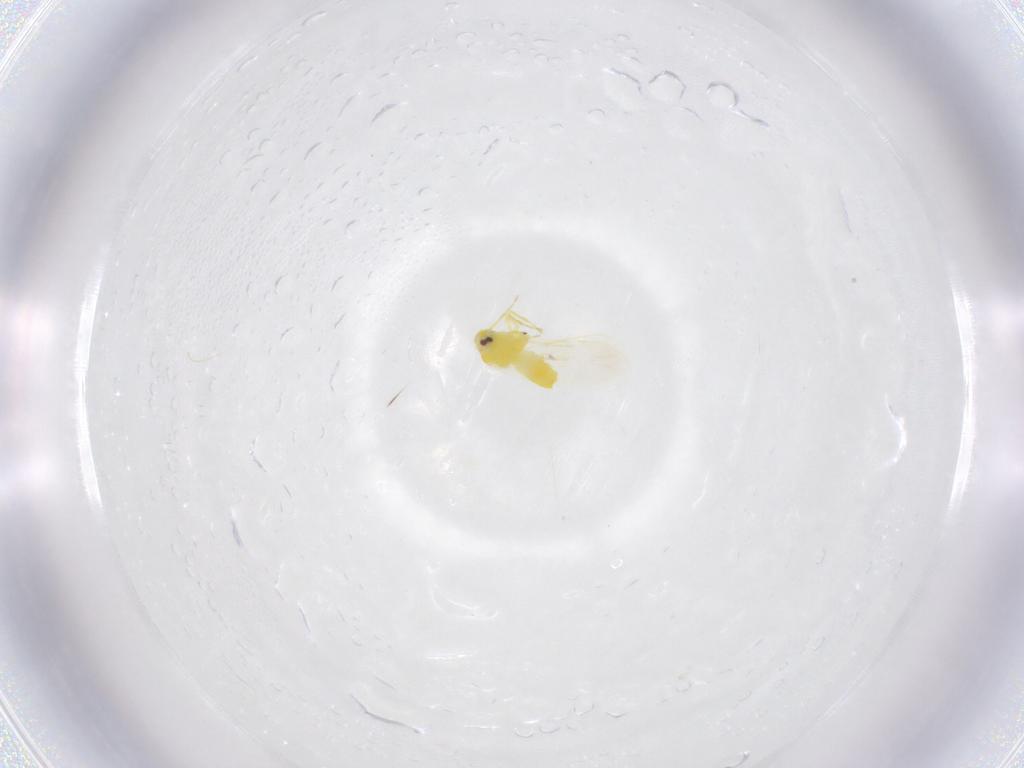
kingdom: Animalia
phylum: Arthropoda
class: Insecta
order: Hemiptera
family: Aleyrodidae
